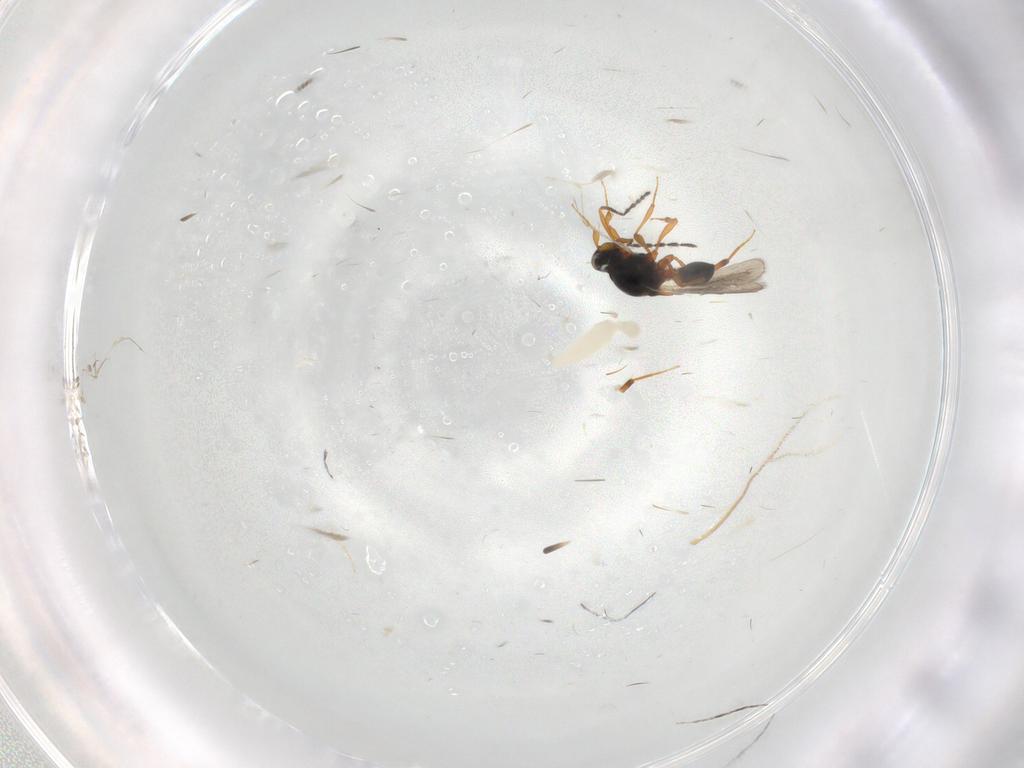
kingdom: Animalia
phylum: Arthropoda
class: Insecta
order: Hymenoptera
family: Platygastridae
